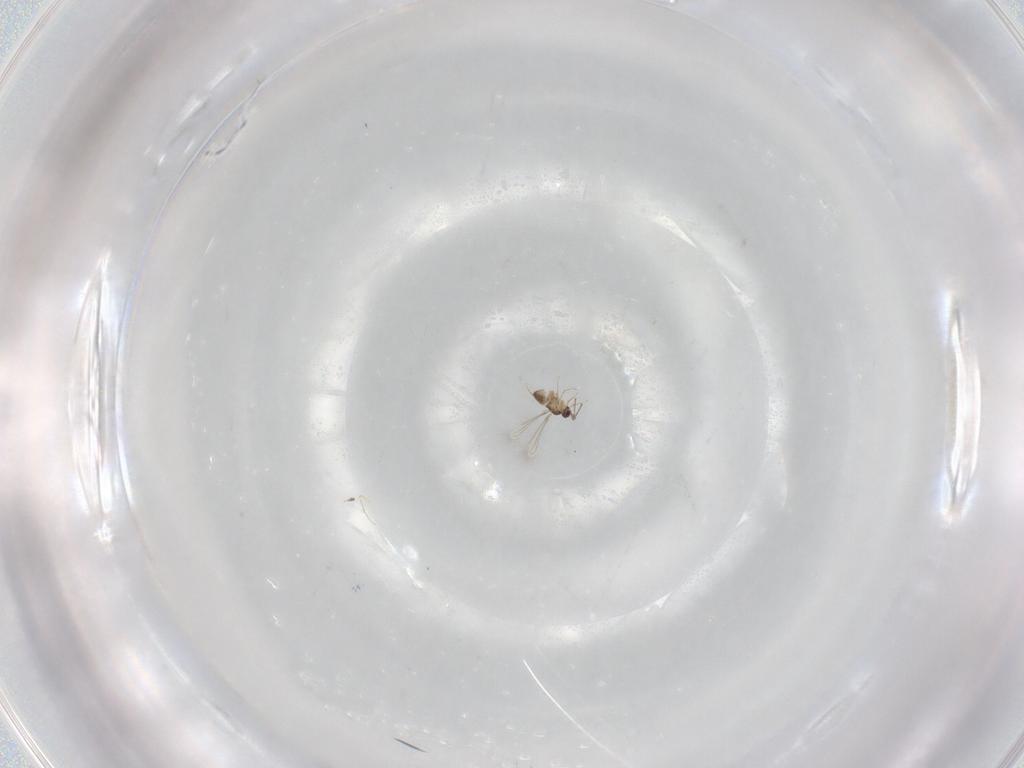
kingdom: Animalia
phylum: Arthropoda
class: Insecta
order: Hymenoptera
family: Mymaridae
